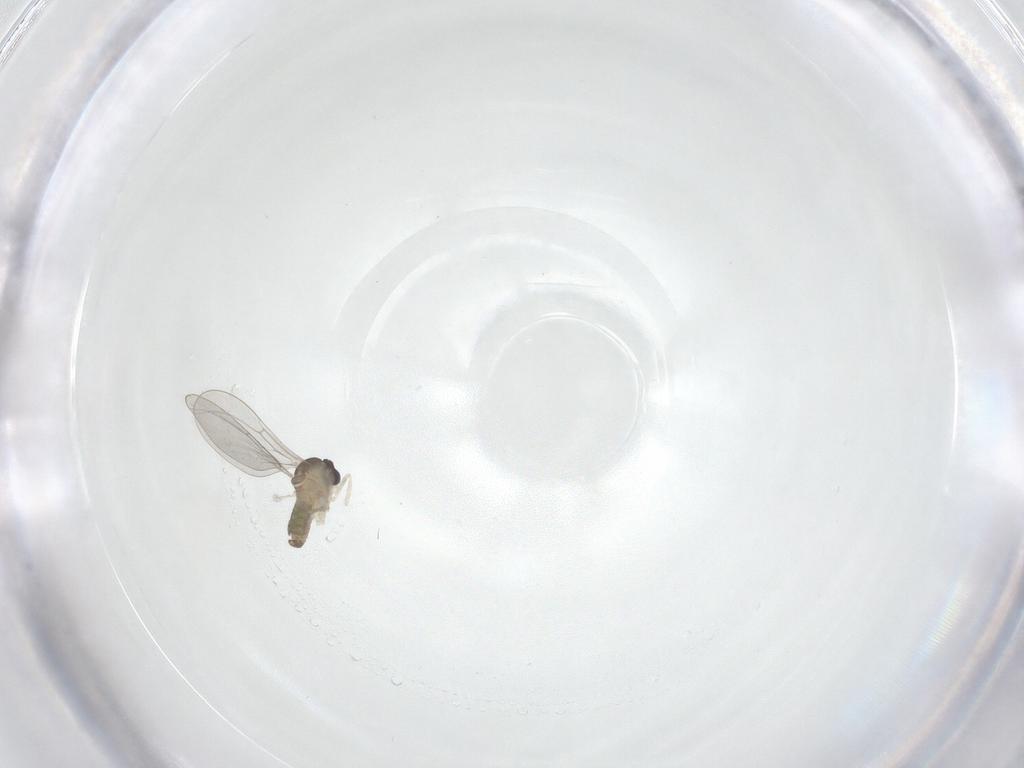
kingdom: Animalia
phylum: Arthropoda
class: Insecta
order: Diptera
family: Cecidomyiidae
